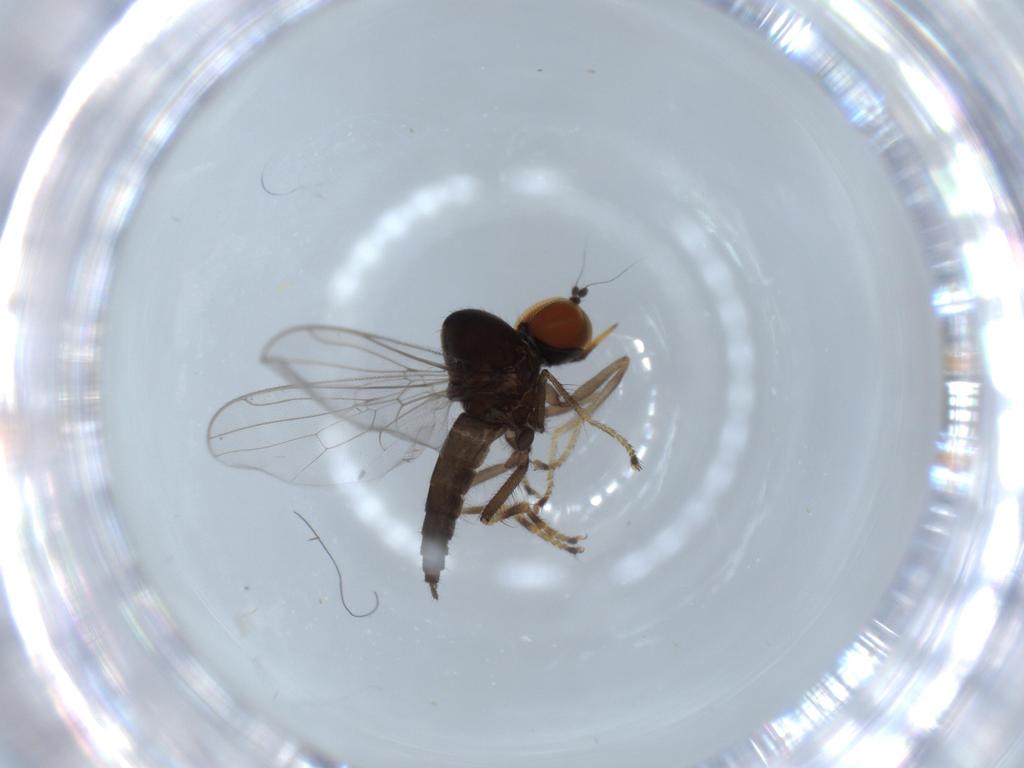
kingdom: Animalia
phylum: Arthropoda
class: Insecta
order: Diptera
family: Hybotidae
